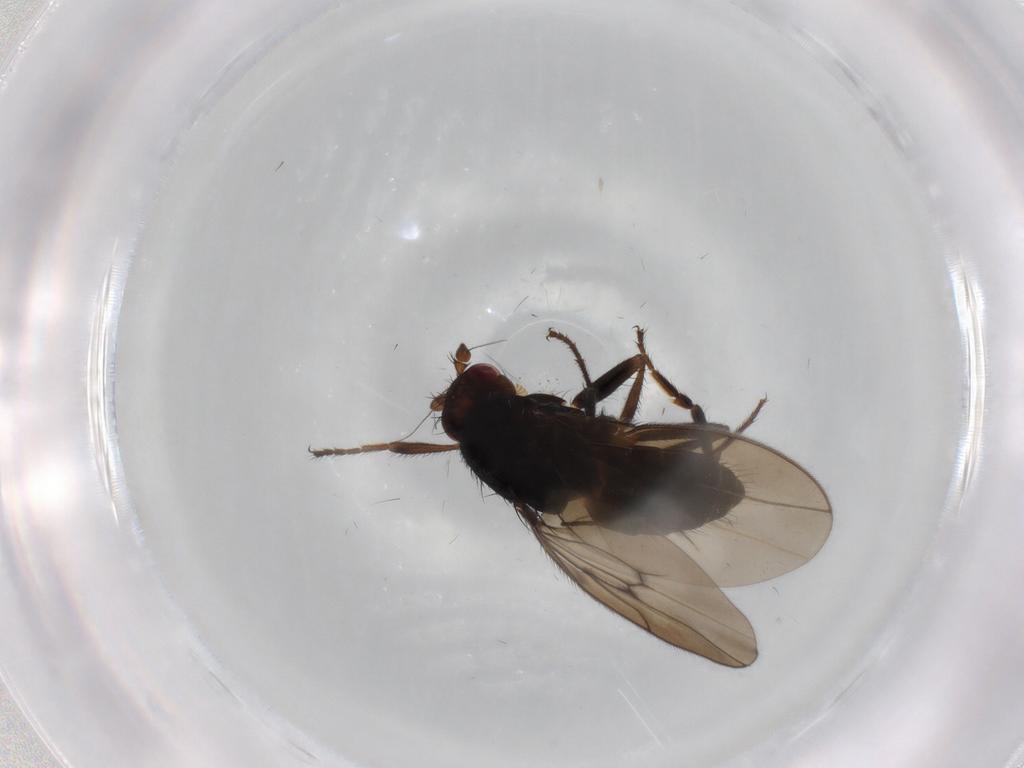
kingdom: Animalia
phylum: Arthropoda
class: Insecta
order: Diptera
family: Sphaeroceridae
